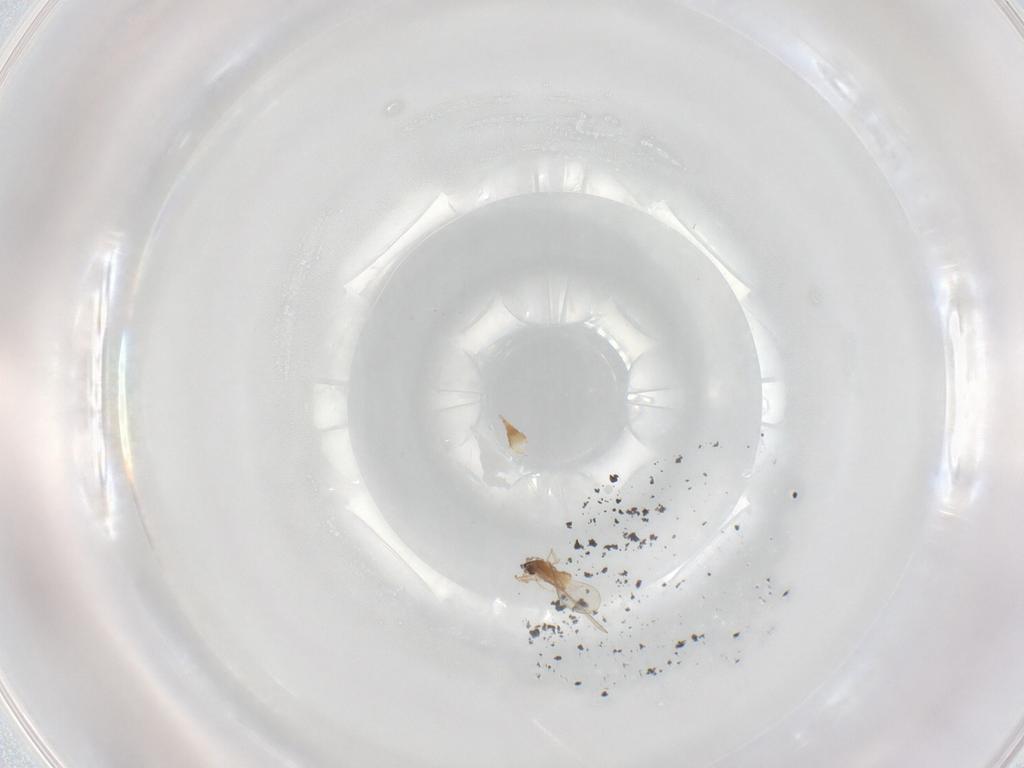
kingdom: Animalia
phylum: Arthropoda
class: Insecta
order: Diptera
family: Cecidomyiidae
